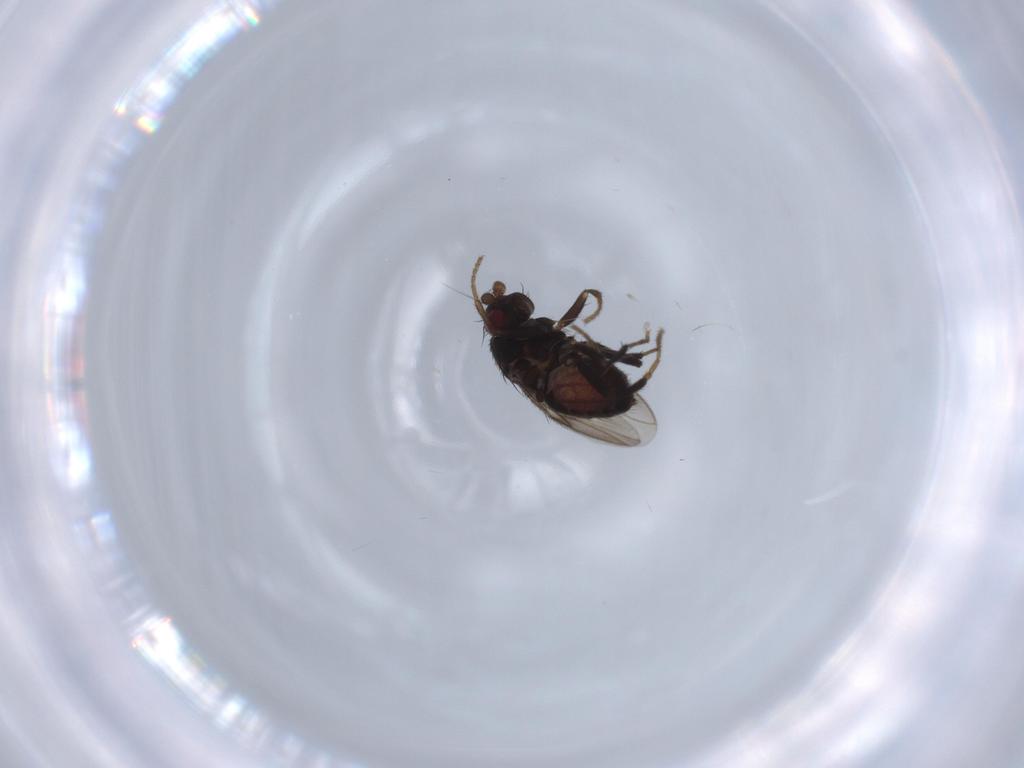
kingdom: Animalia
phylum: Arthropoda
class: Insecta
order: Diptera
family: Sphaeroceridae
